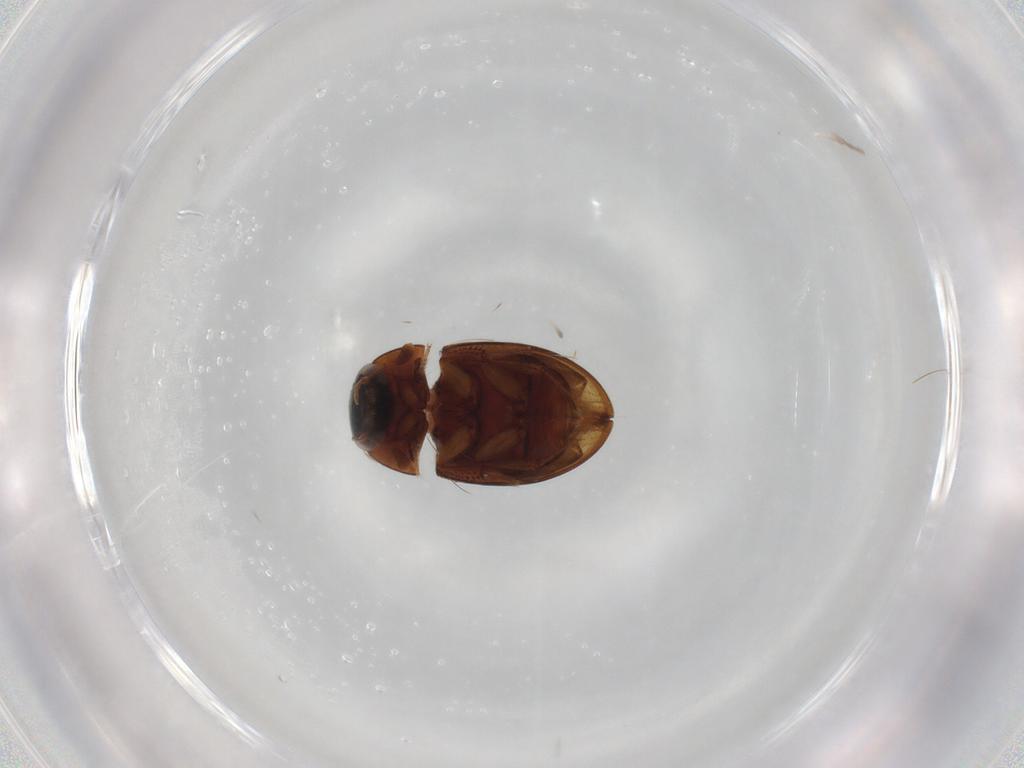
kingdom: Animalia
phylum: Arthropoda
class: Insecta
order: Coleoptera
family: Hydrophilidae
